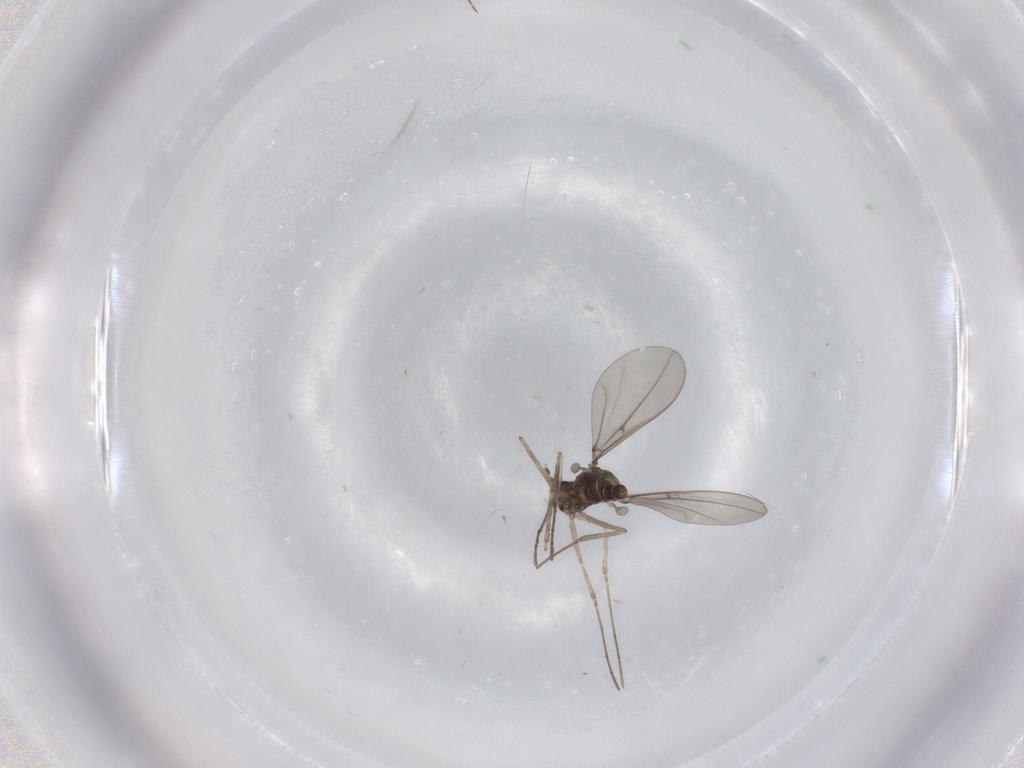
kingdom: Animalia
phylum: Arthropoda
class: Insecta
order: Diptera
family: Cecidomyiidae
